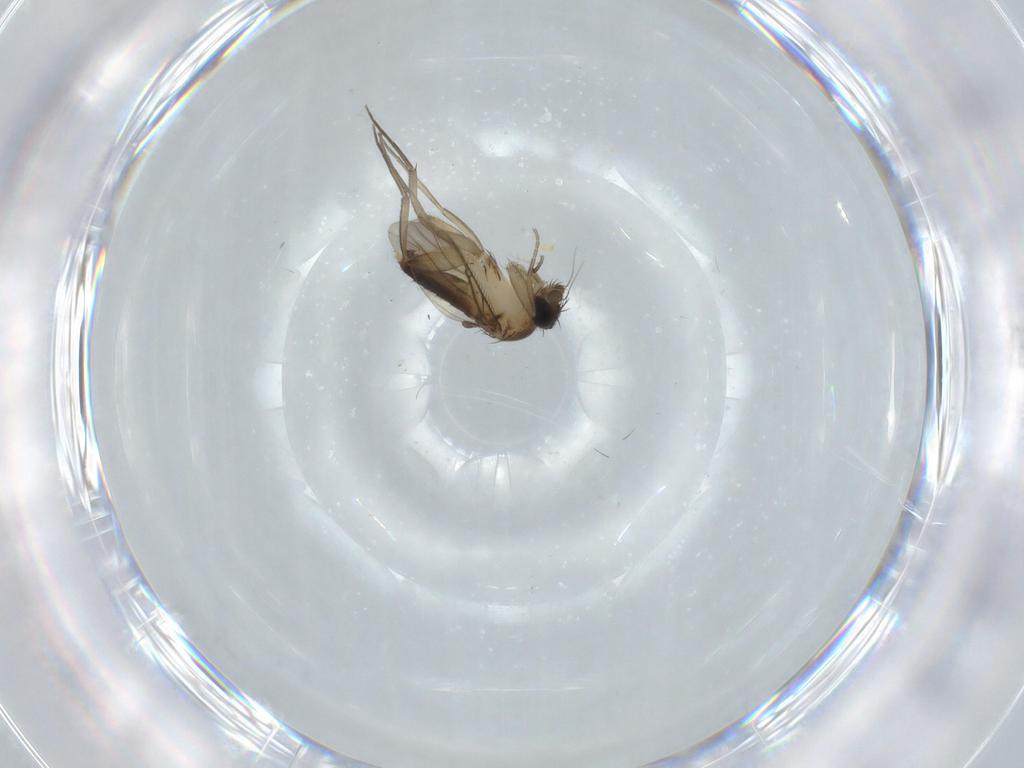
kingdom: Animalia
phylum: Arthropoda
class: Insecta
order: Diptera
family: Phoridae
